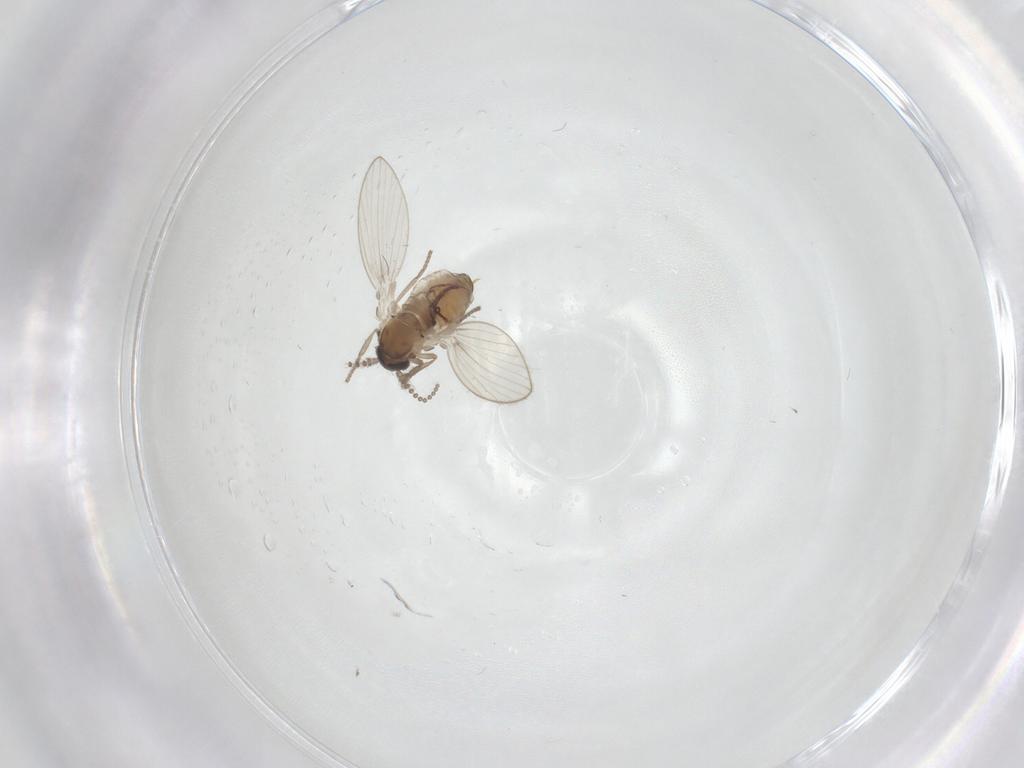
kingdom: Animalia
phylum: Arthropoda
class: Insecta
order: Diptera
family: Psychodidae
